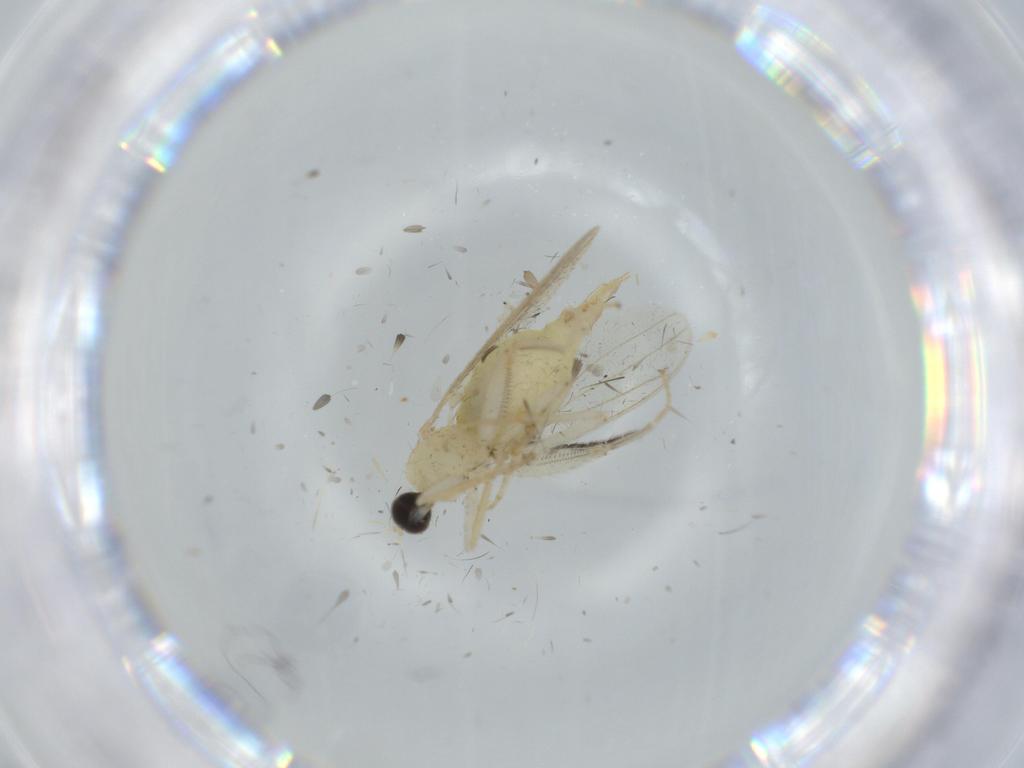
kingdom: Animalia
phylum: Arthropoda
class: Insecta
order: Diptera
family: Hybotidae
